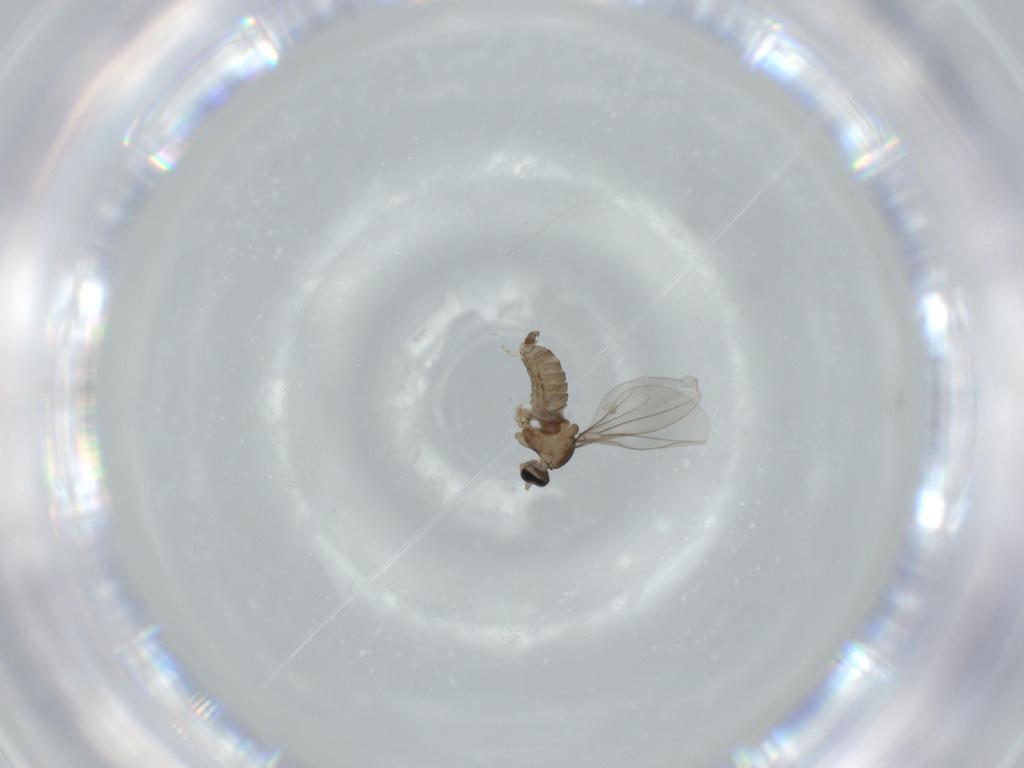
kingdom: Animalia
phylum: Arthropoda
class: Insecta
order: Diptera
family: Cecidomyiidae
